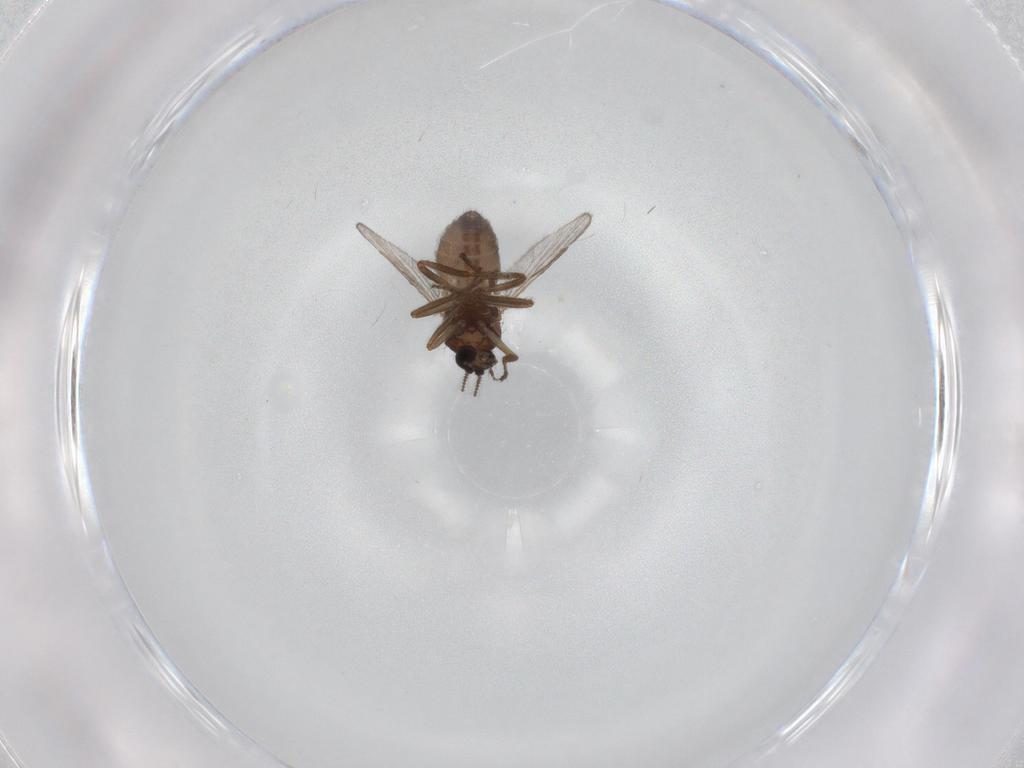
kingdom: Animalia
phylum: Arthropoda
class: Insecta
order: Diptera
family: Ceratopogonidae
